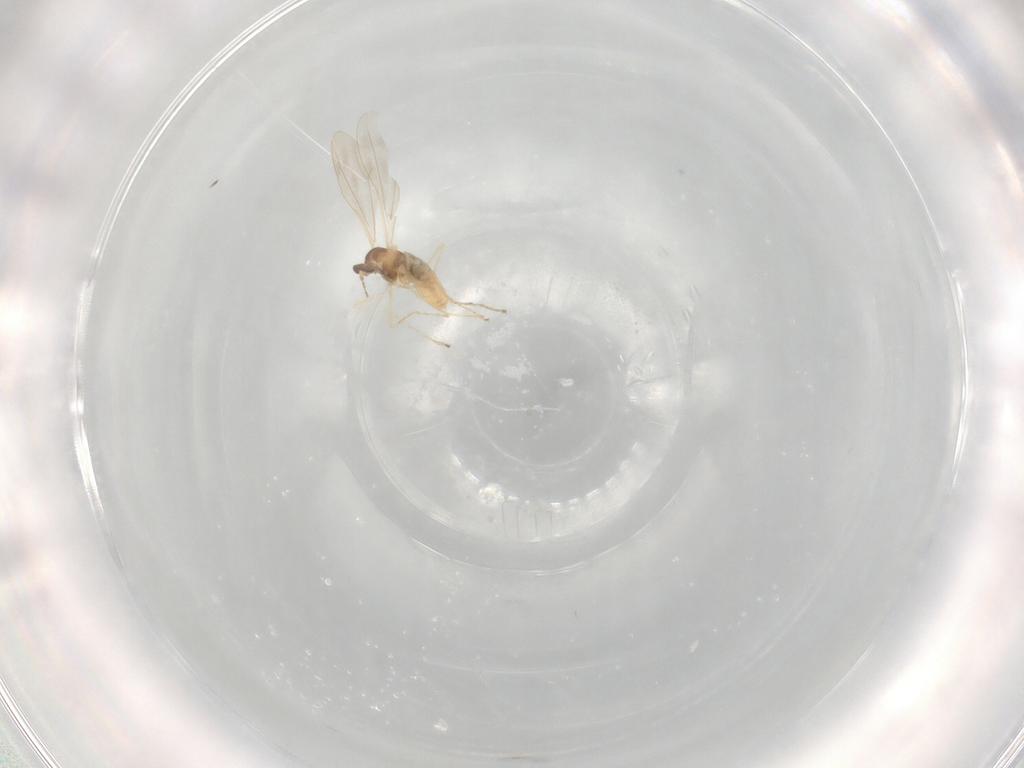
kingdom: Animalia
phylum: Arthropoda
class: Insecta
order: Diptera
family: Cecidomyiidae
